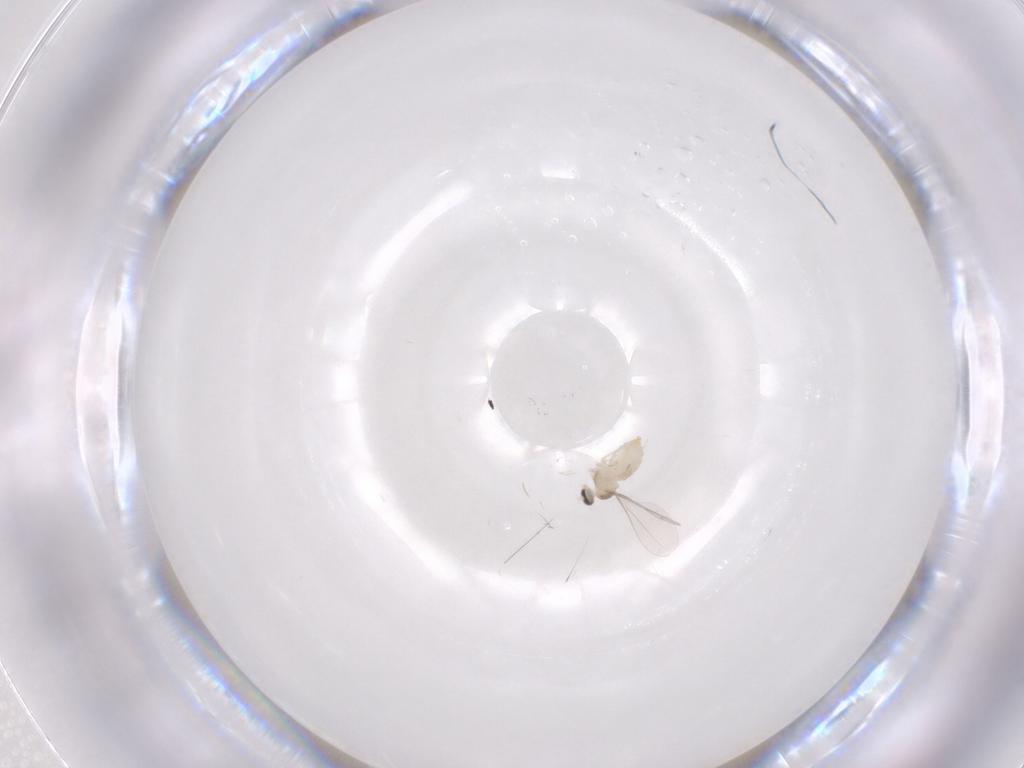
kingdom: Animalia
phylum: Arthropoda
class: Insecta
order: Diptera
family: Cecidomyiidae
